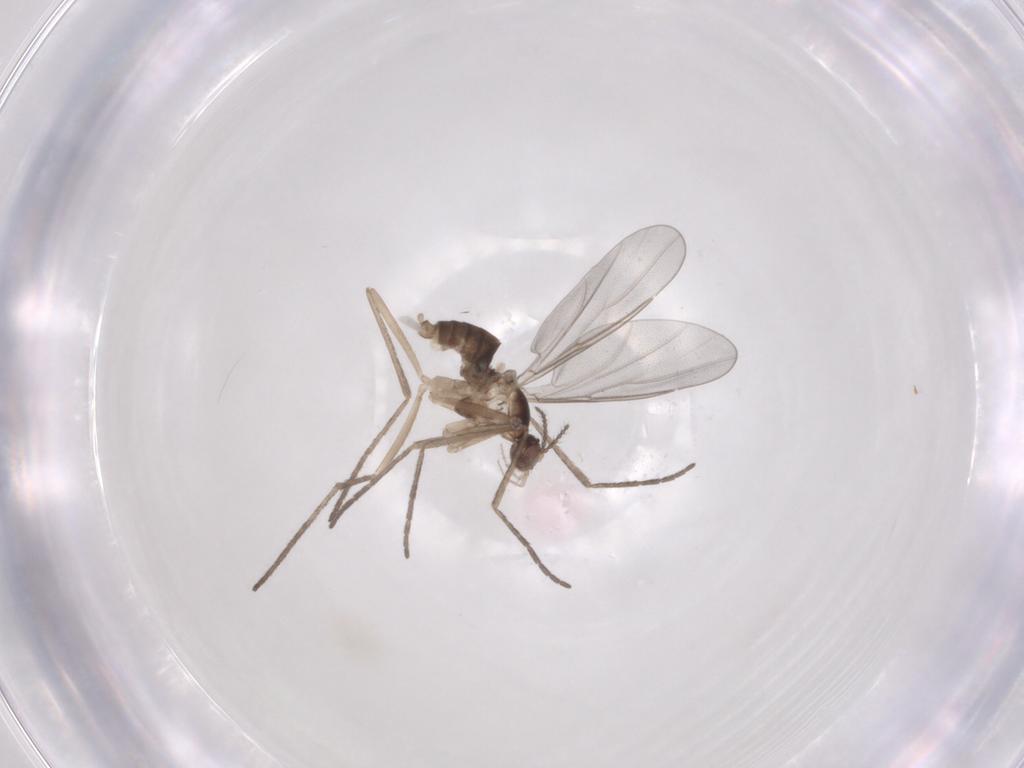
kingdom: Animalia
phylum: Arthropoda
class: Insecta
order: Diptera
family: Cecidomyiidae
